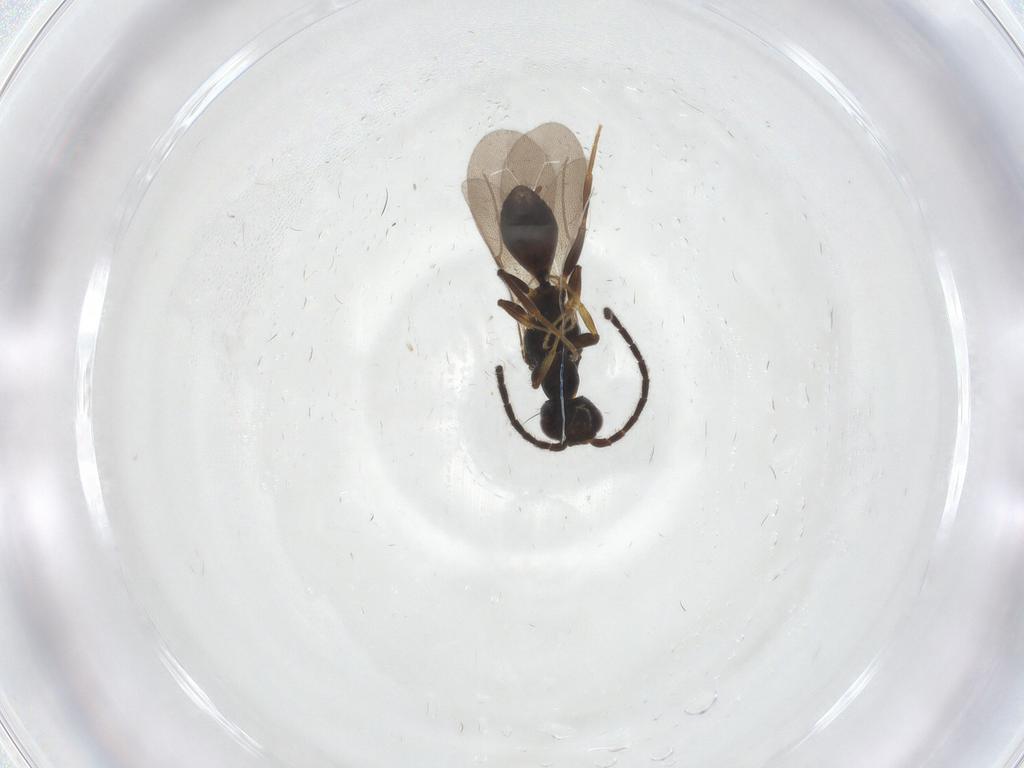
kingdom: Animalia
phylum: Arthropoda
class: Insecta
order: Hymenoptera
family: Bethylidae
